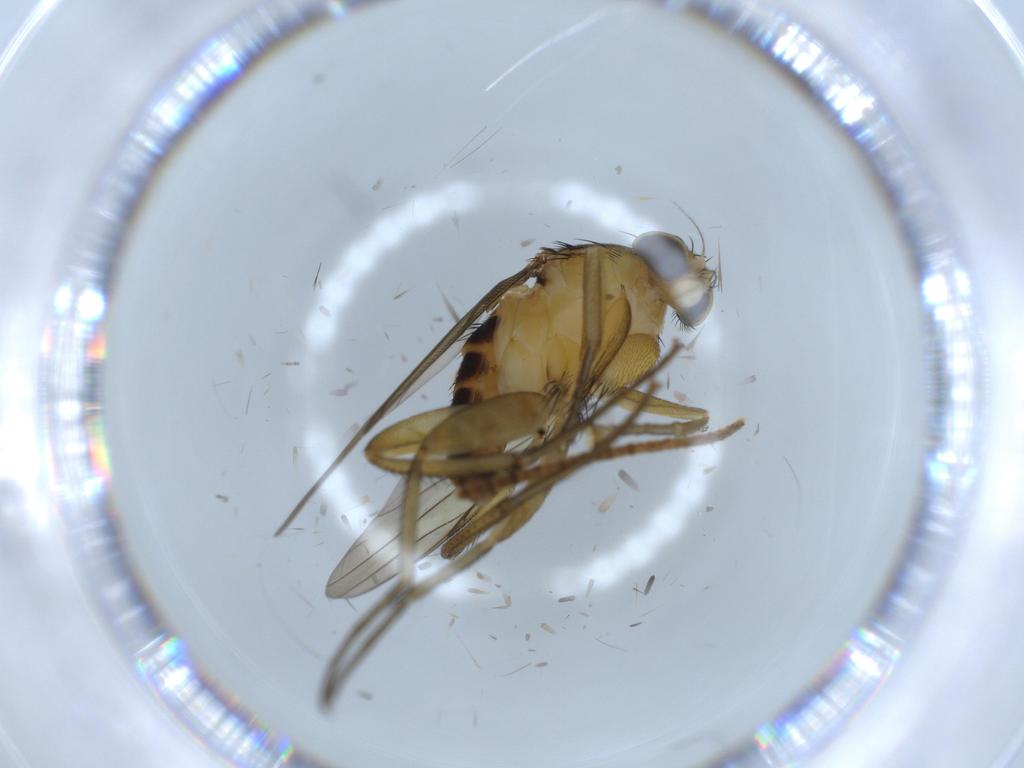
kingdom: Animalia
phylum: Arthropoda
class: Insecta
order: Diptera
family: Phoridae
